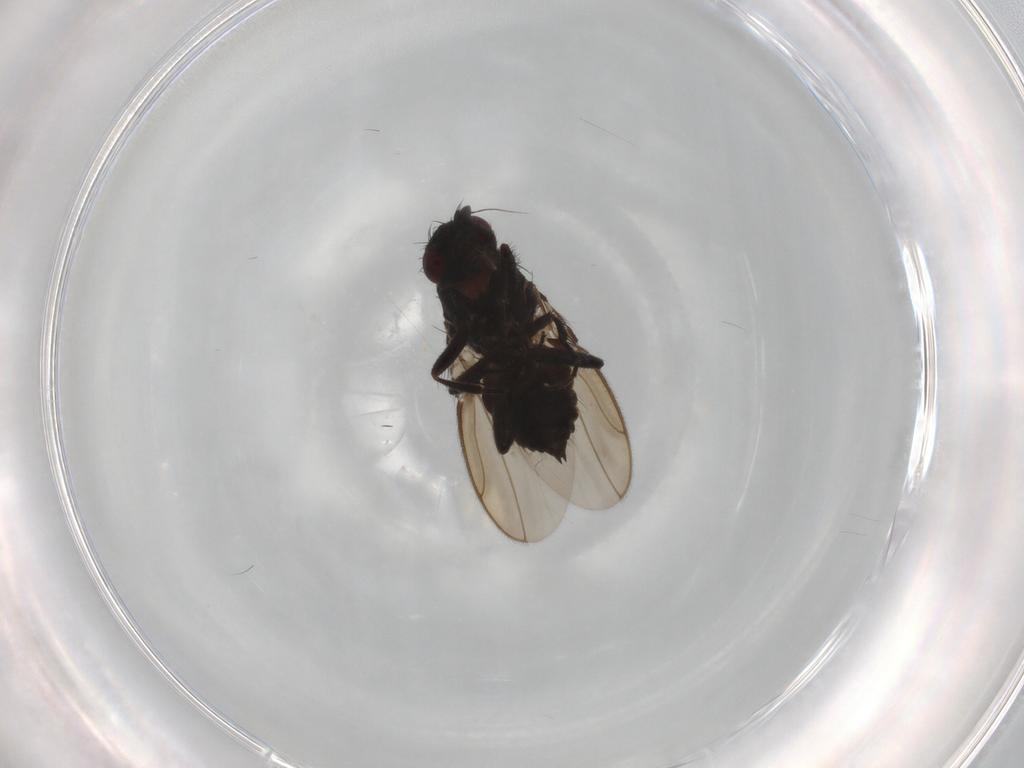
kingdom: Animalia
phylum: Arthropoda
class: Insecta
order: Diptera
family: Sphaeroceridae
